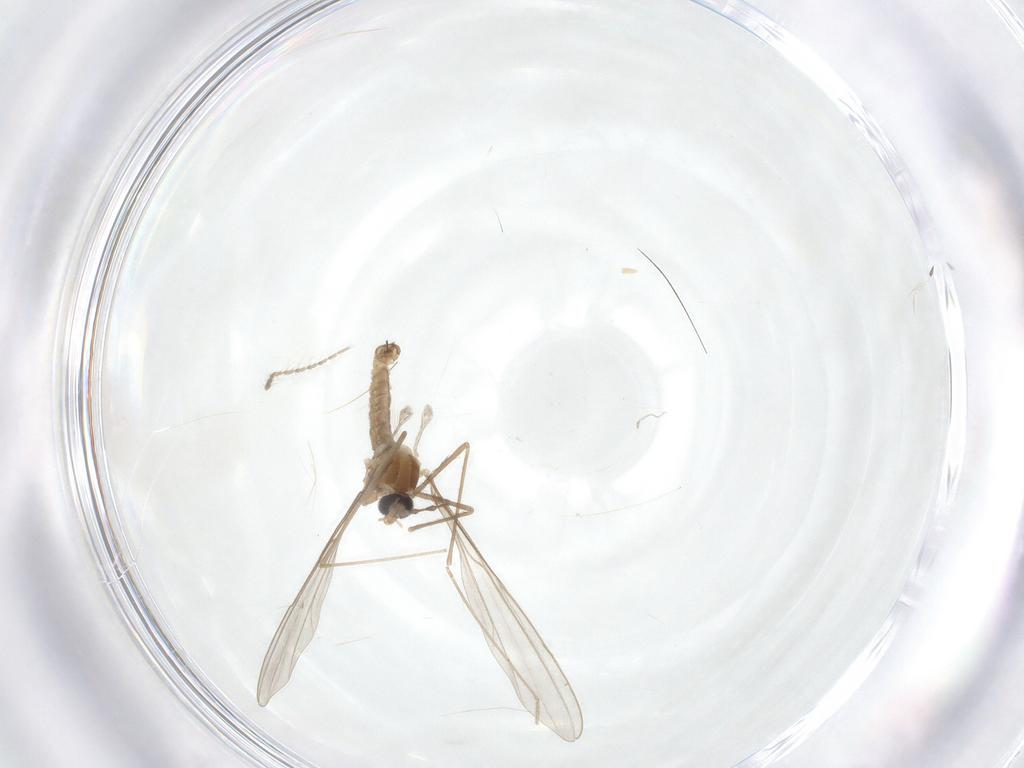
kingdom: Animalia
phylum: Arthropoda
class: Insecta
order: Diptera
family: Cecidomyiidae
